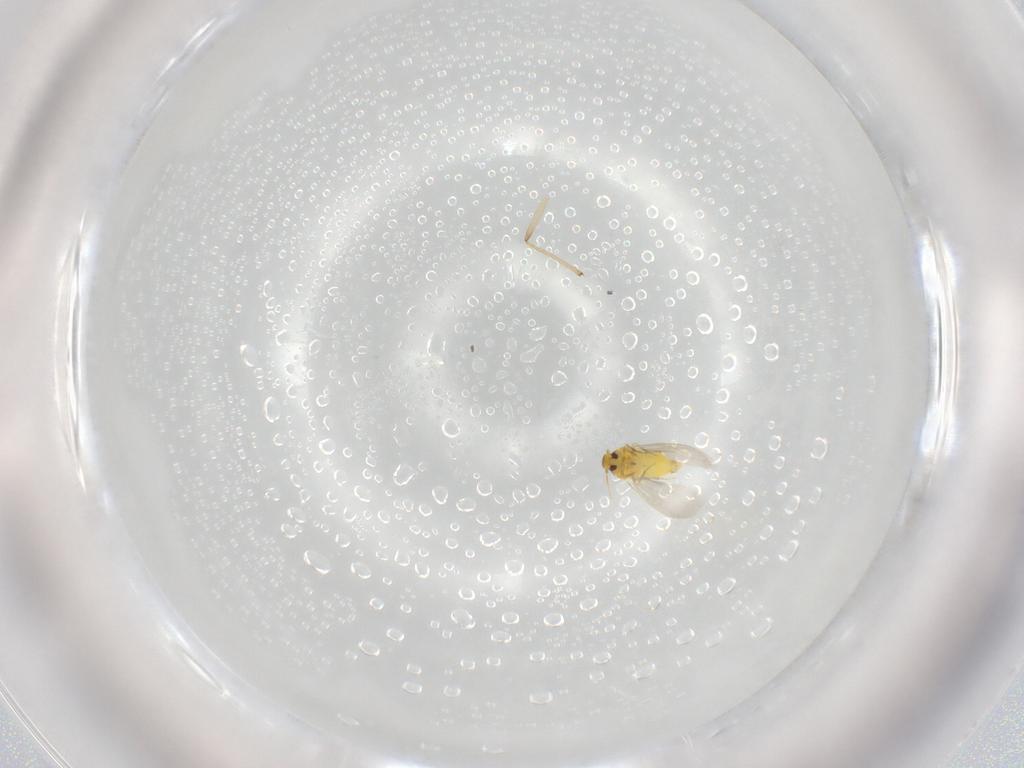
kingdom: Animalia
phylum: Arthropoda
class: Insecta
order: Hemiptera
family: Aleyrodidae
